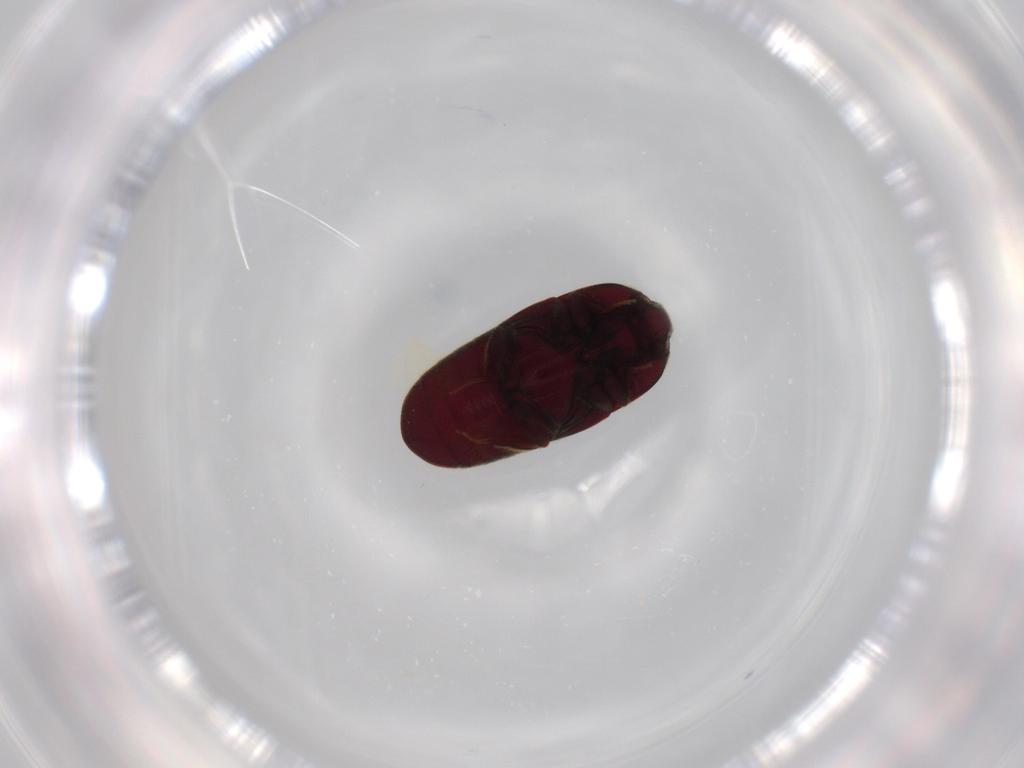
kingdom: Animalia
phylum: Arthropoda
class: Insecta
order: Coleoptera
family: Throscidae
